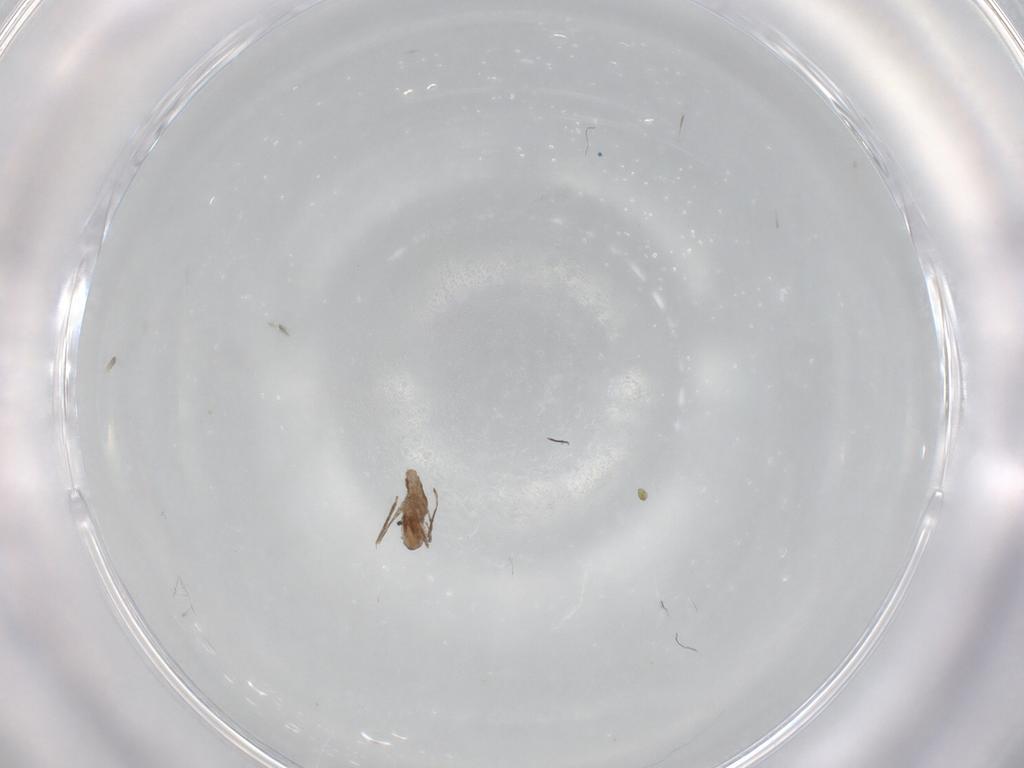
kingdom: Animalia
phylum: Arthropoda
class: Insecta
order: Diptera
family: Cecidomyiidae
